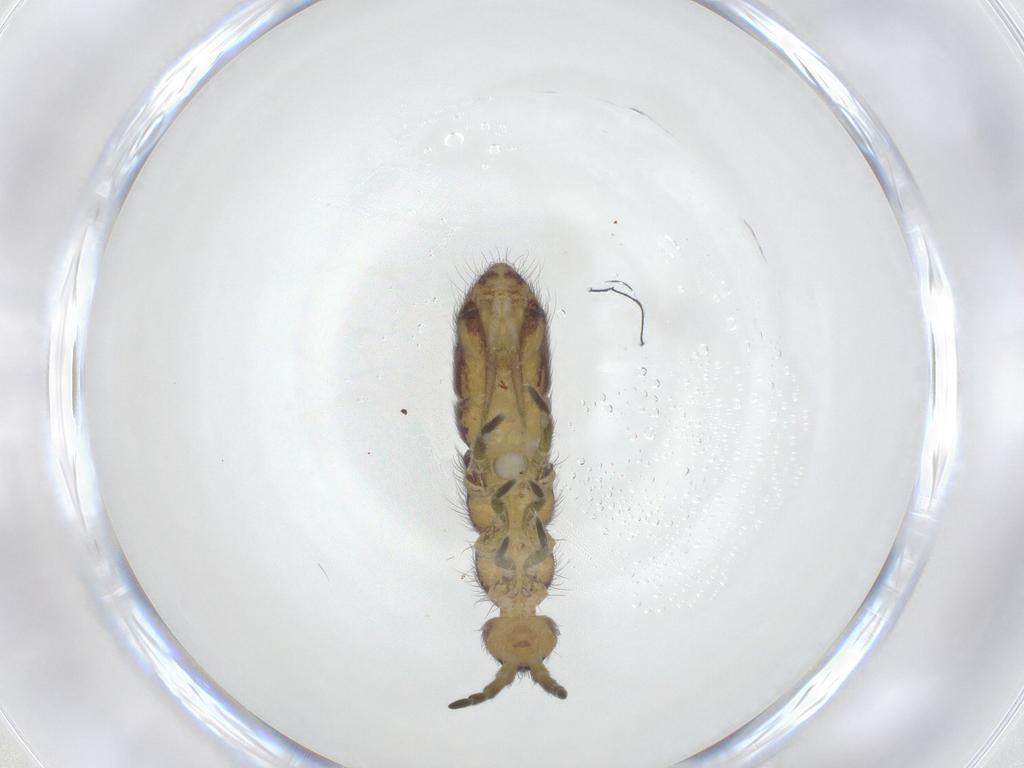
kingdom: Animalia
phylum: Arthropoda
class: Collembola
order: Entomobryomorpha
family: Isotomidae
